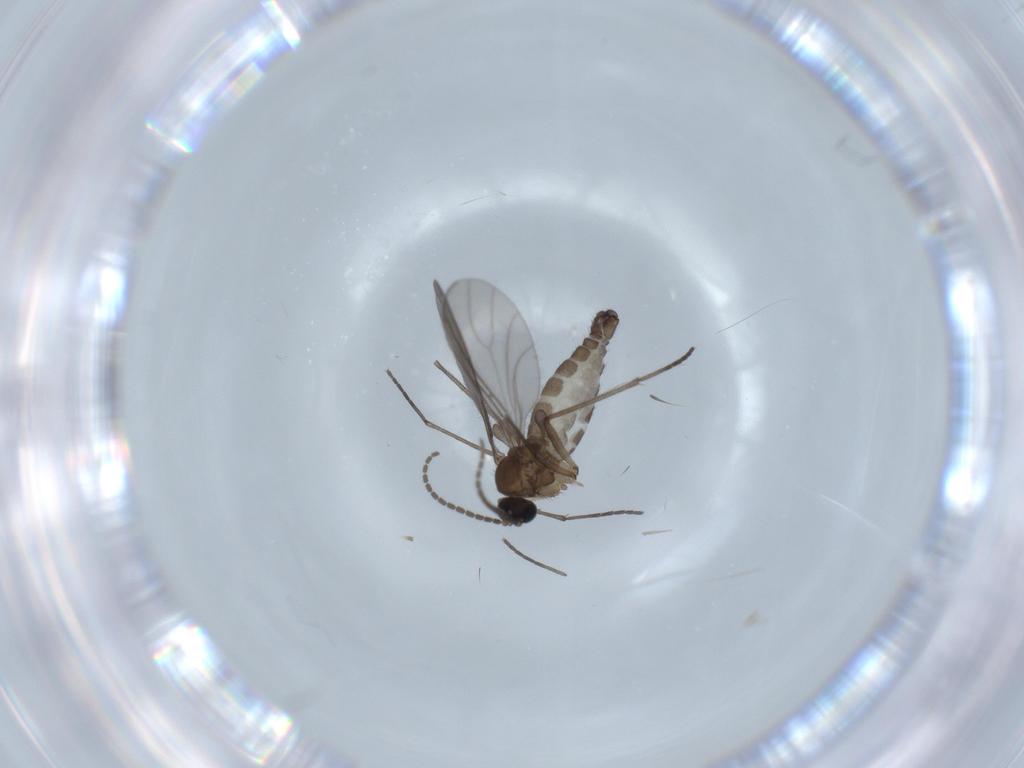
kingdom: Animalia
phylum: Arthropoda
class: Insecta
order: Diptera
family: Sciaridae
